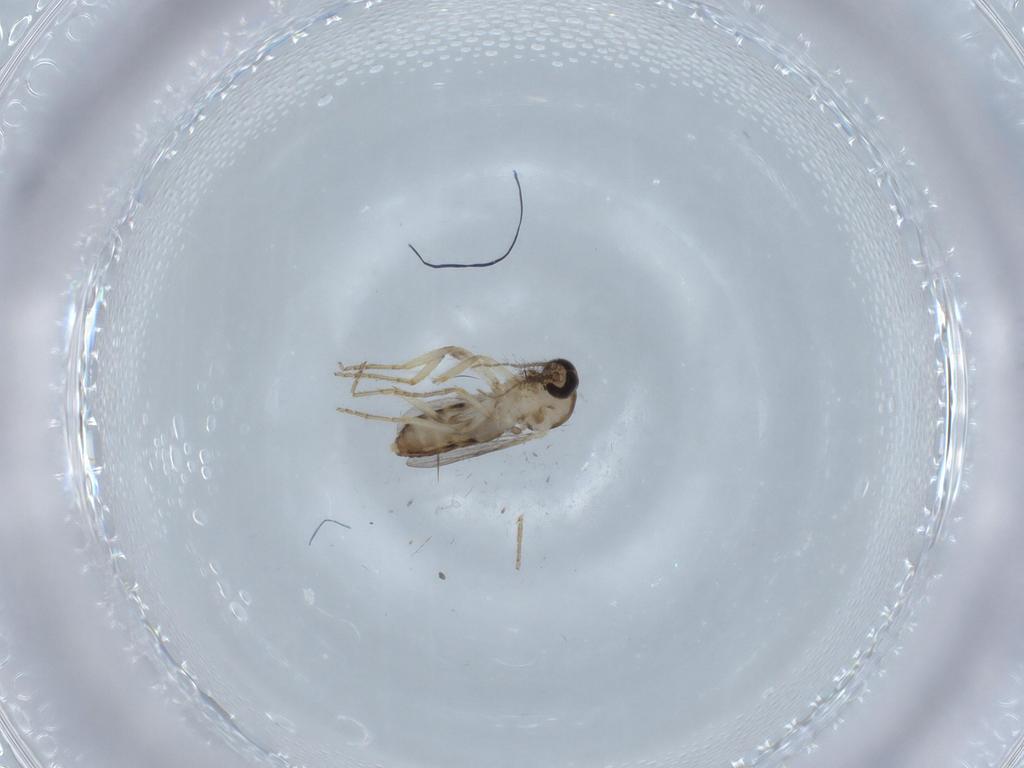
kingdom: Animalia
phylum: Arthropoda
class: Insecta
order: Diptera
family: Ceratopogonidae
